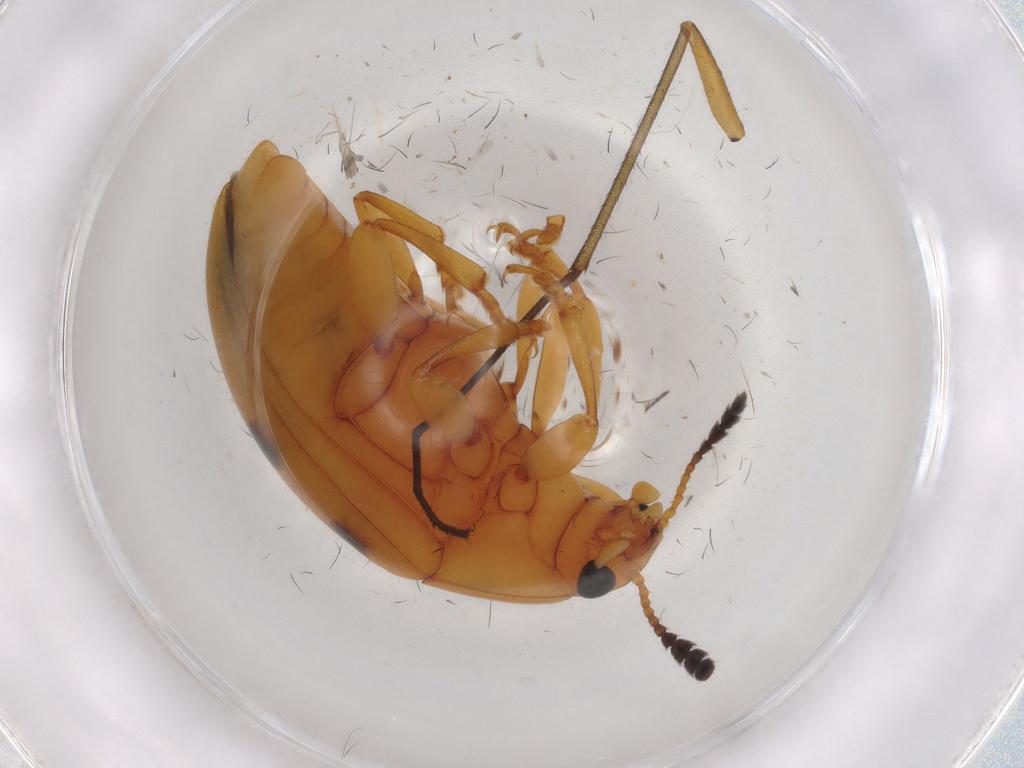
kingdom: Animalia
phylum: Arthropoda
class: Insecta
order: Coleoptera
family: Erotylidae
